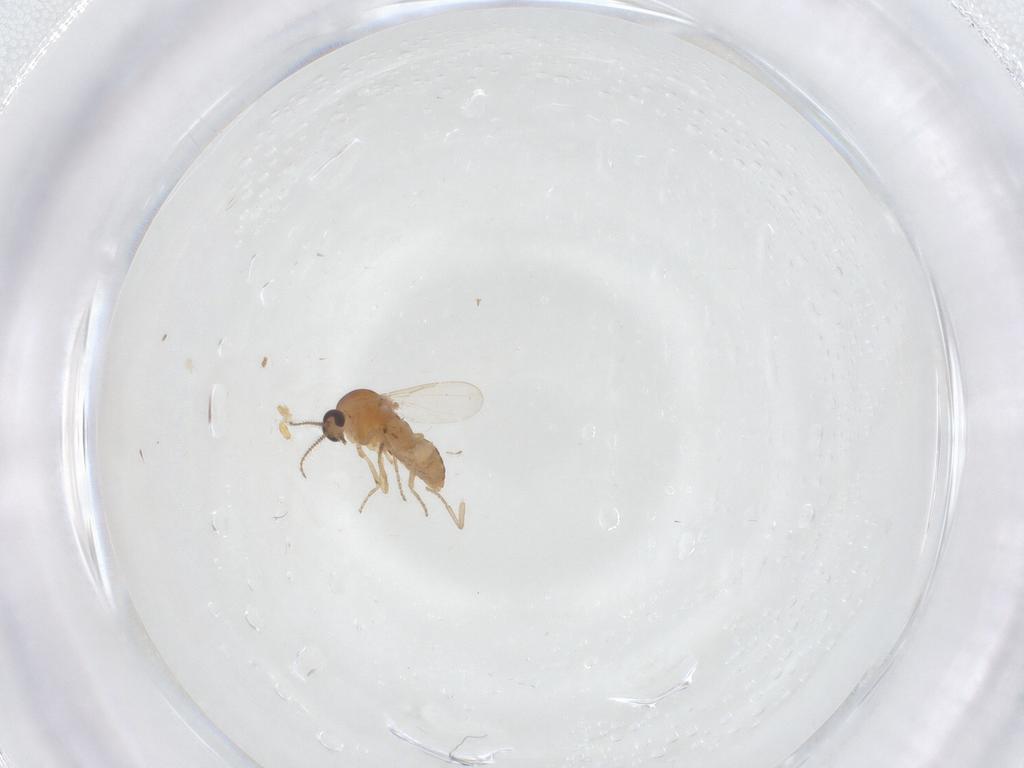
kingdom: Animalia
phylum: Arthropoda
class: Insecta
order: Diptera
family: Ceratopogonidae
